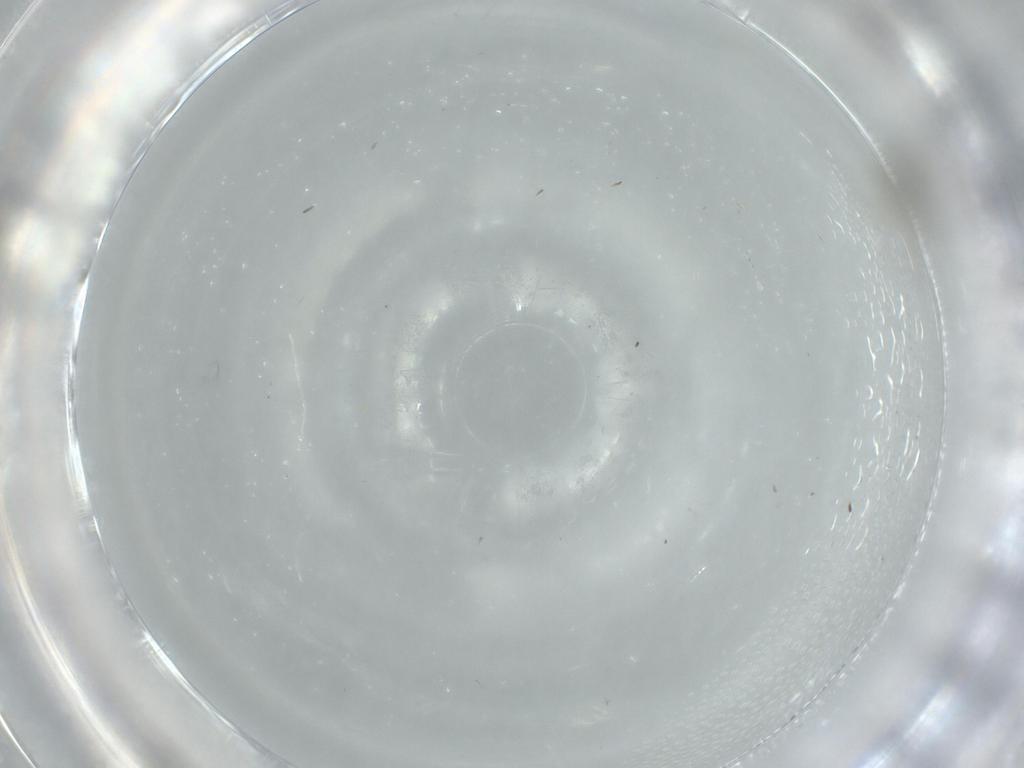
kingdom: Animalia
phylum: Arthropoda
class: Insecta
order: Diptera
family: Cecidomyiidae
